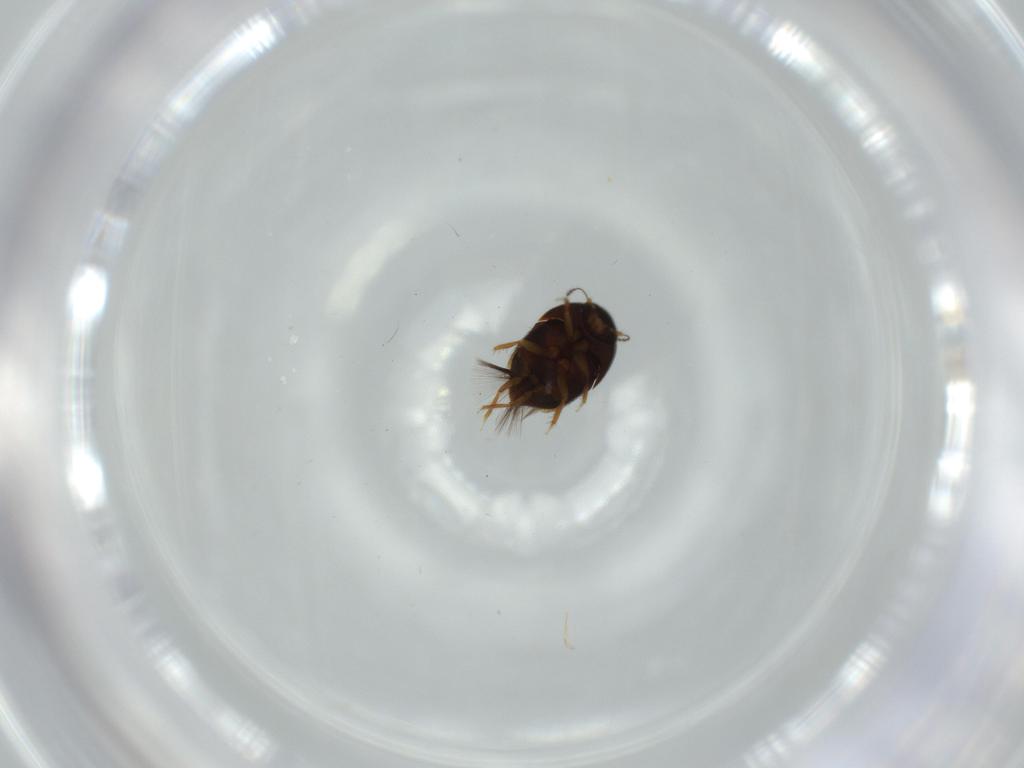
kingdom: Animalia
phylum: Arthropoda
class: Insecta
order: Coleoptera
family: Ptiliidae
